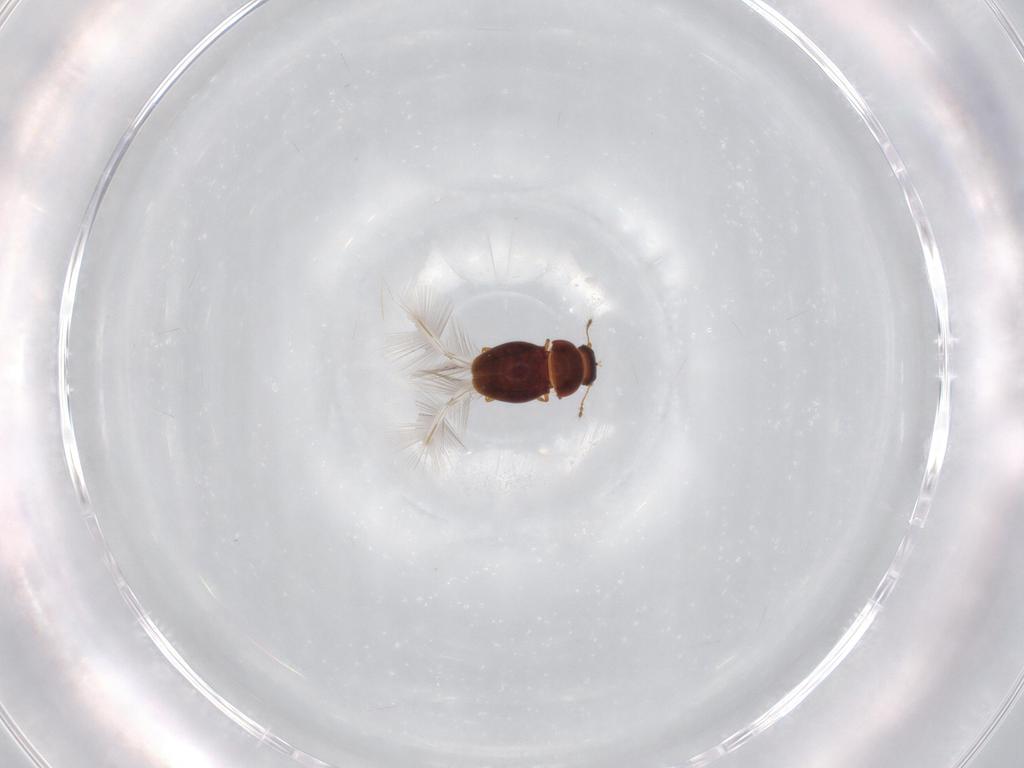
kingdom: Animalia
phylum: Arthropoda
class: Insecta
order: Coleoptera
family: Ptiliidae
